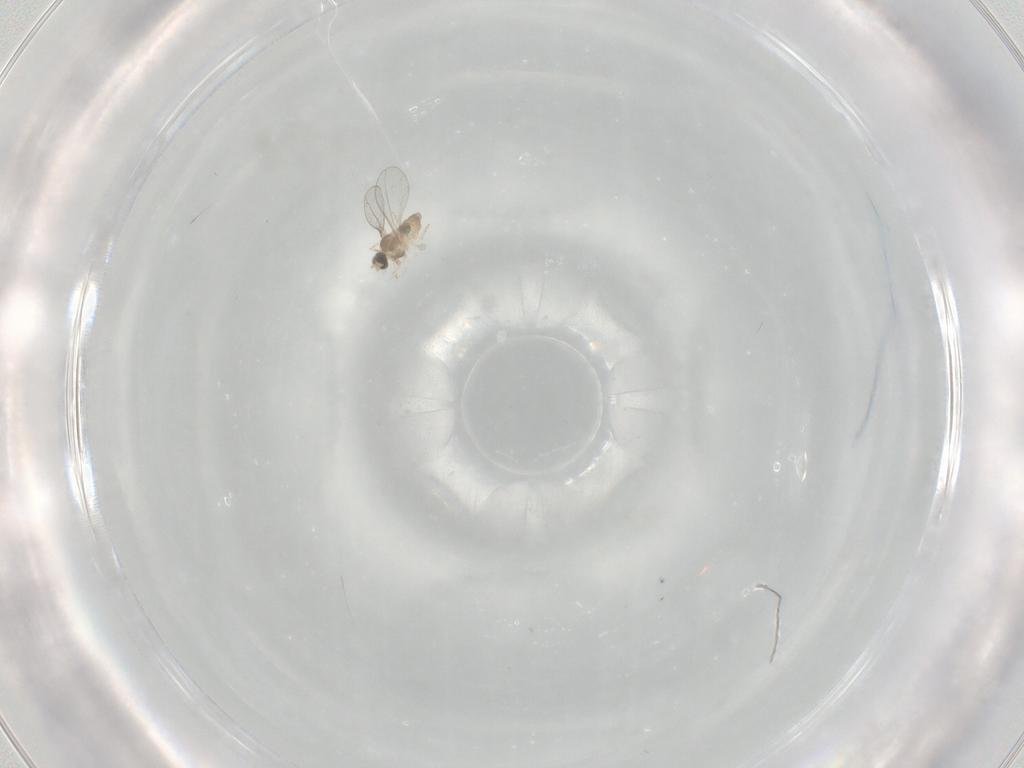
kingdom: Animalia
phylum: Arthropoda
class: Insecta
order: Diptera
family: Cecidomyiidae
